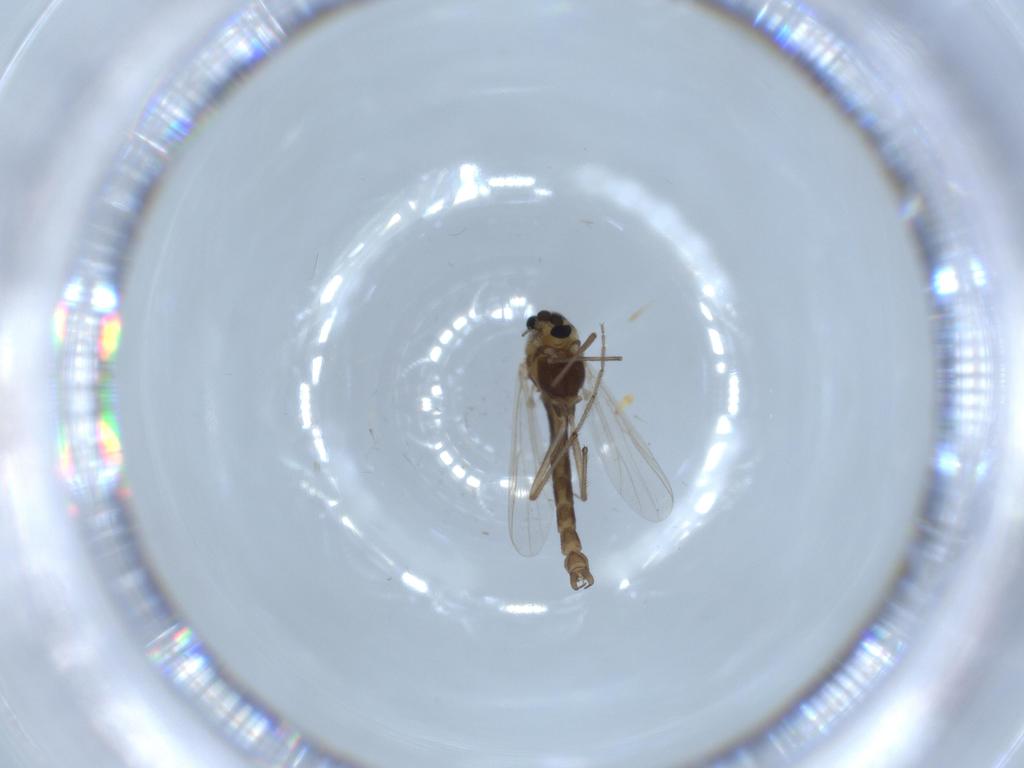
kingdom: Animalia
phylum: Arthropoda
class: Insecta
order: Diptera
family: Chironomidae
